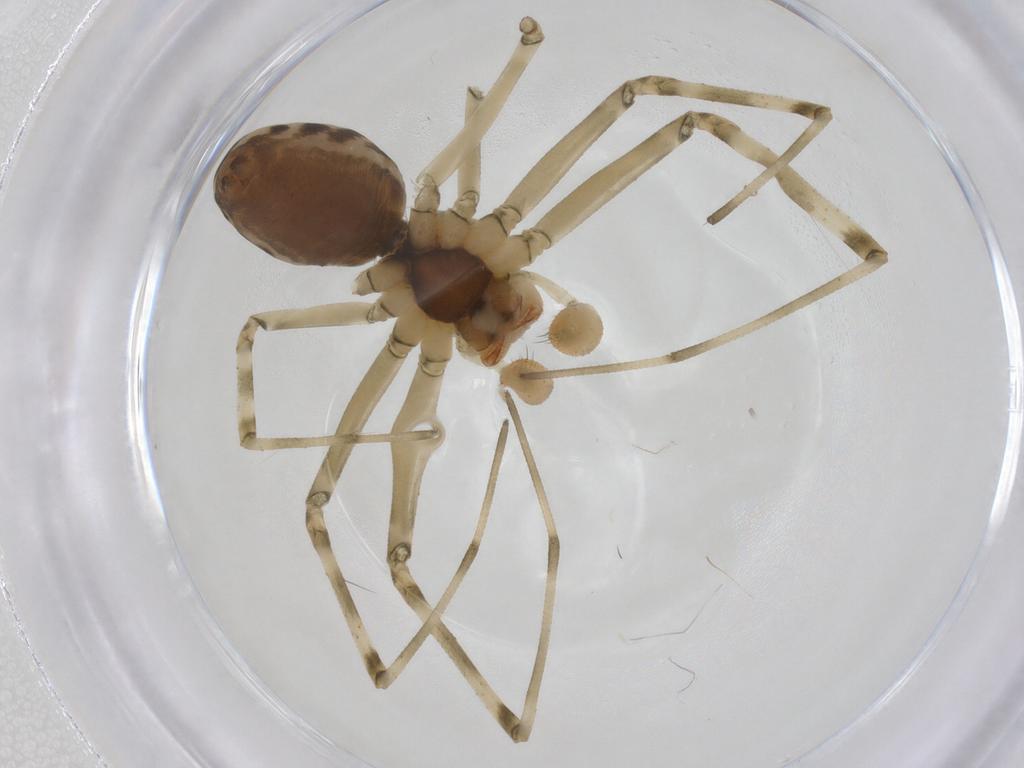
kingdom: Animalia
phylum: Arthropoda
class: Arachnida
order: Araneae
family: Linyphiidae
